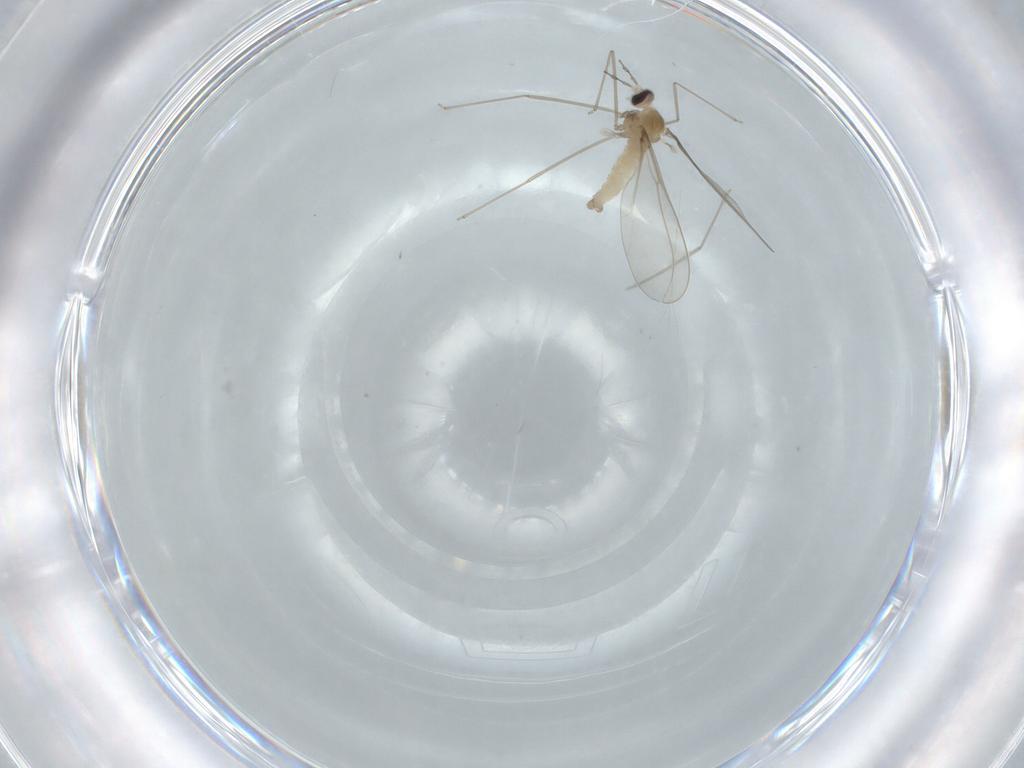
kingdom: Animalia
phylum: Arthropoda
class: Insecta
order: Diptera
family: Cecidomyiidae
